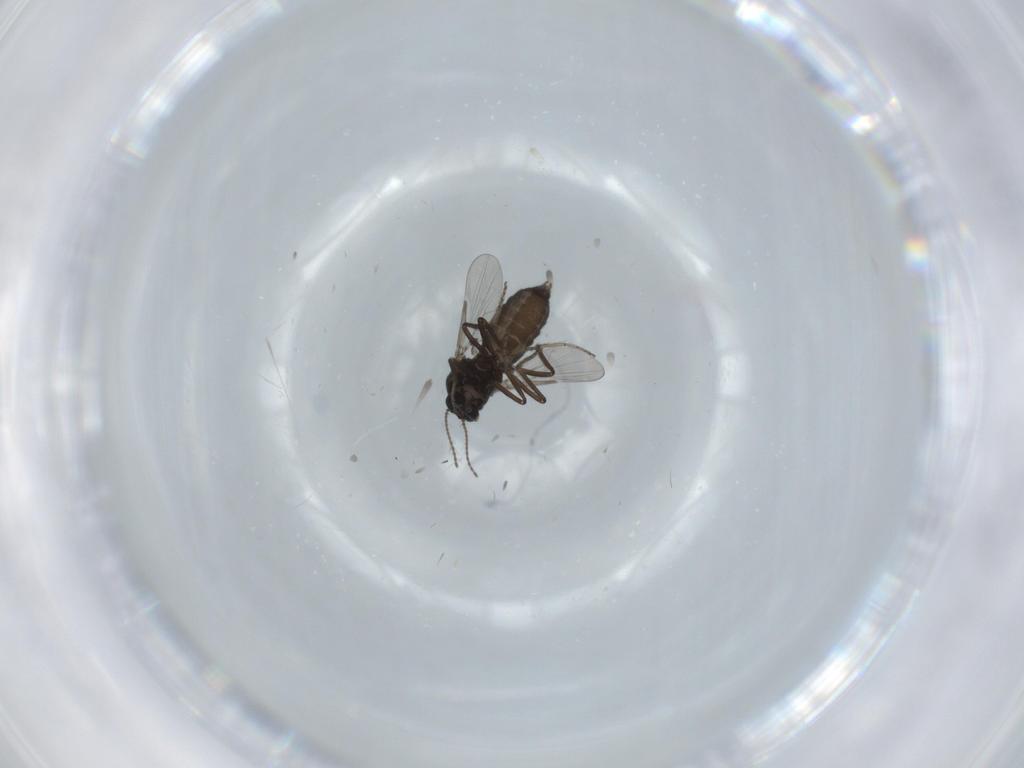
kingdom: Animalia
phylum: Arthropoda
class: Insecta
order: Diptera
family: Ceratopogonidae
